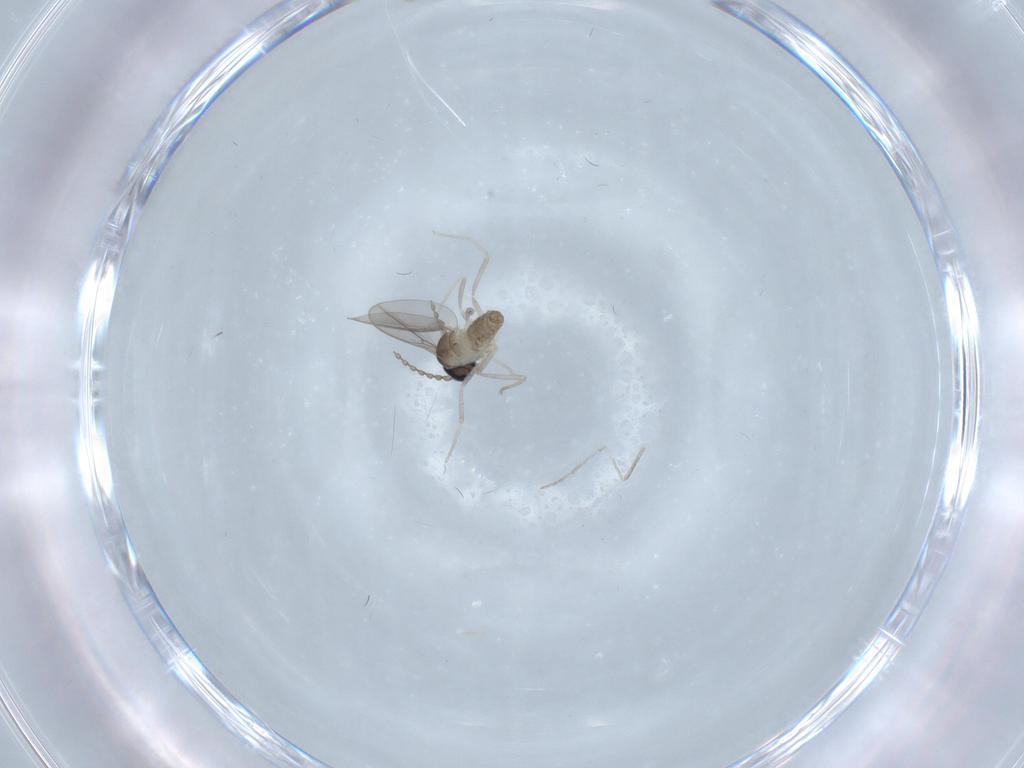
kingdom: Animalia
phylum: Arthropoda
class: Insecta
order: Diptera
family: Cecidomyiidae
